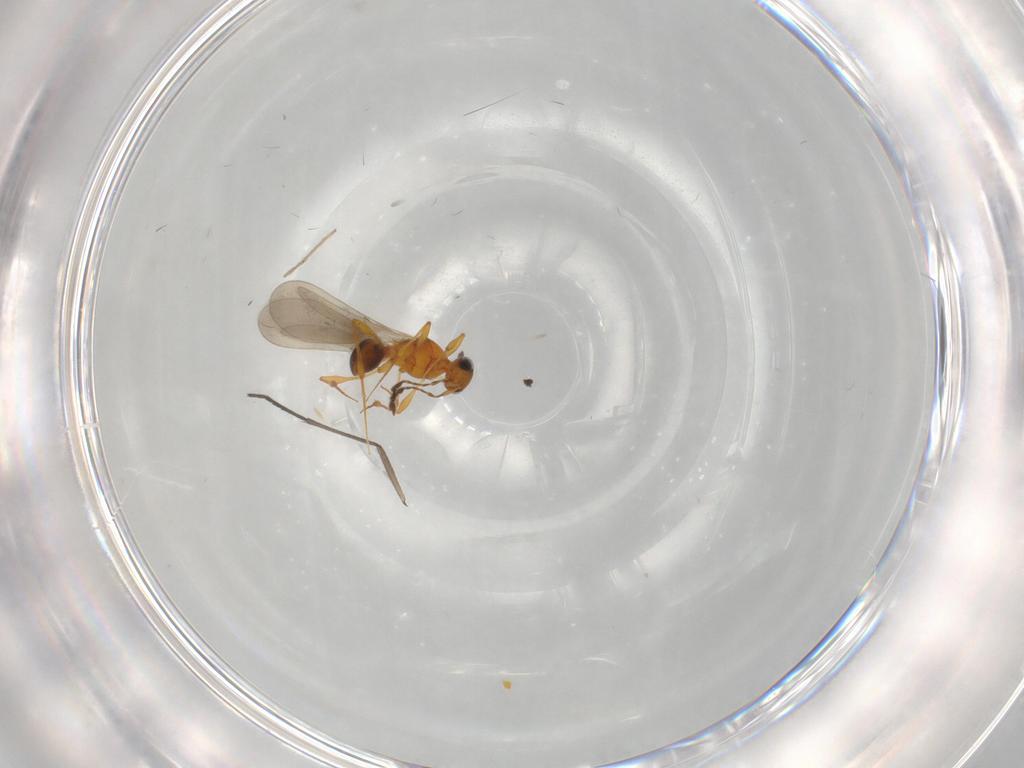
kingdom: Animalia
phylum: Arthropoda
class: Insecta
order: Hymenoptera
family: Platygastridae
